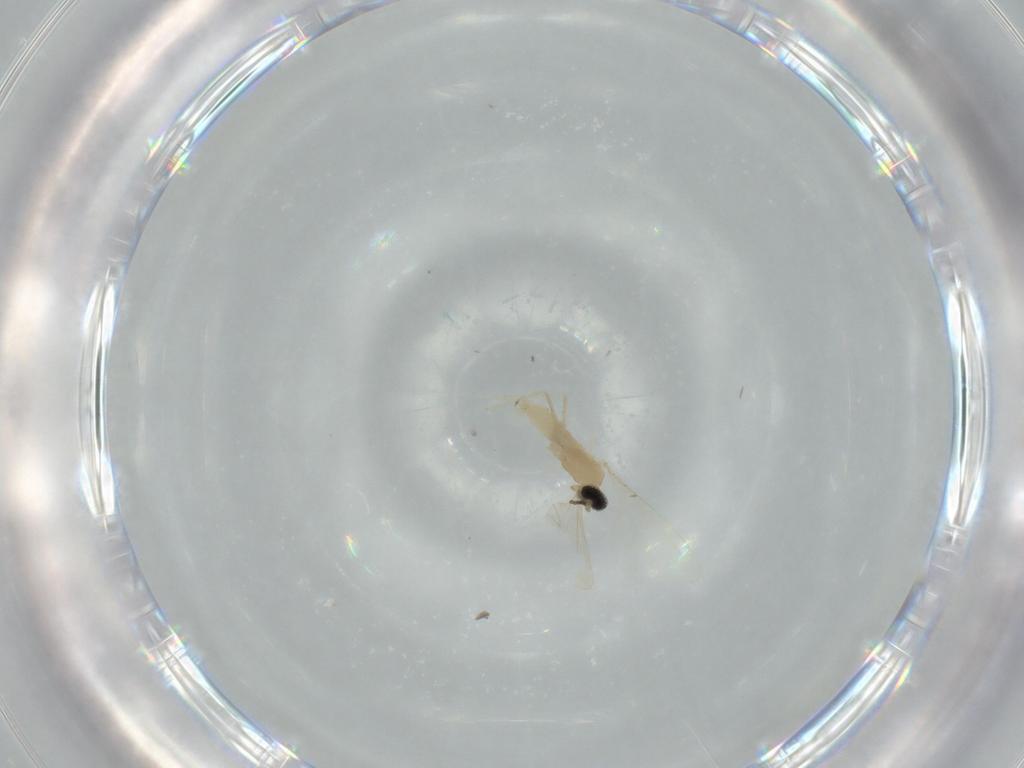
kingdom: Animalia
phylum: Arthropoda
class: Insecta
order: Diptera
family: Cecidomyiidae
